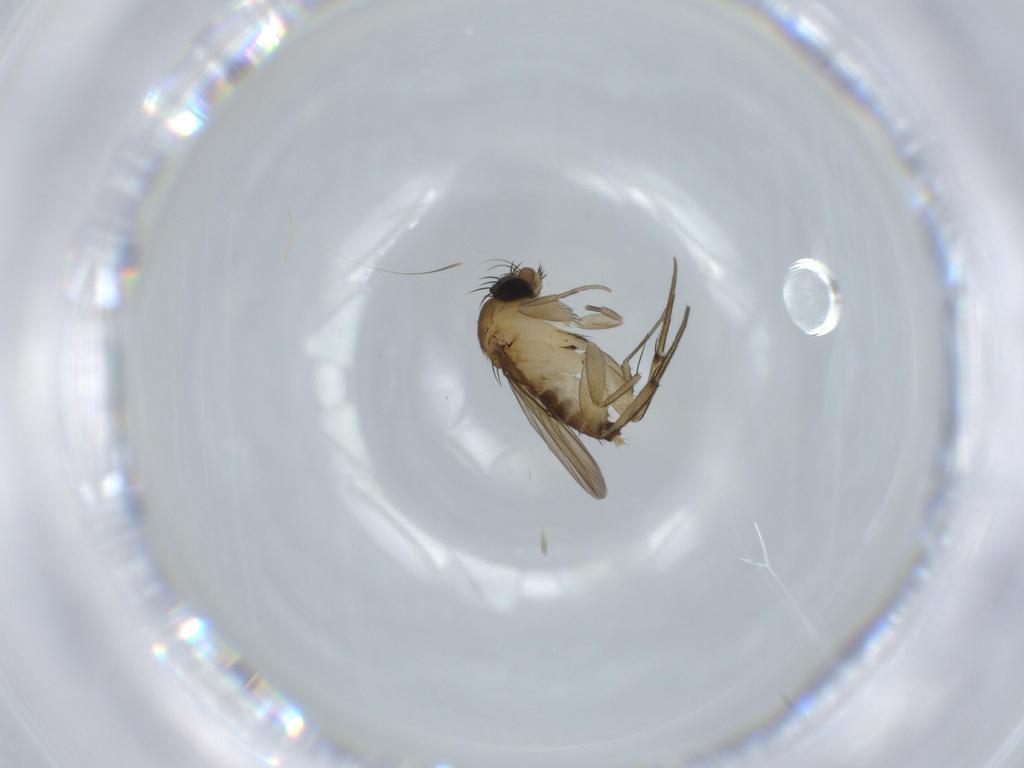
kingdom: Animalia
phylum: Arthropoda
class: Insecta
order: Diptera
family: Phoridae
